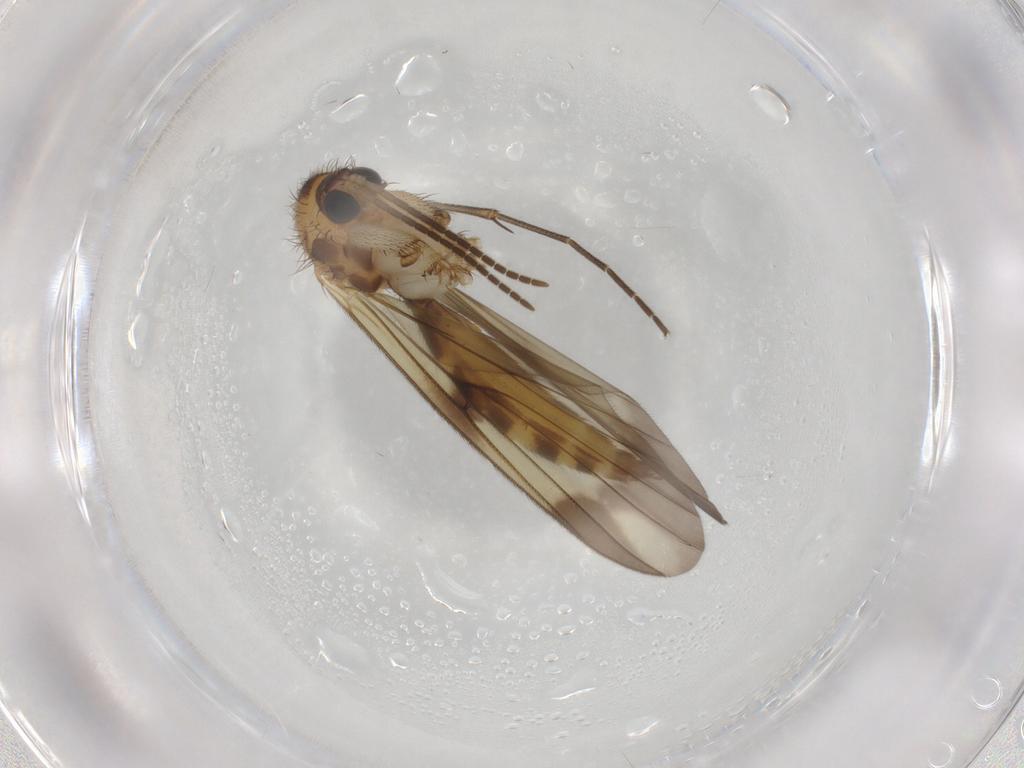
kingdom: Animalia
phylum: Arthropoda
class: Insecta
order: Diptera
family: Mycetophilidae
